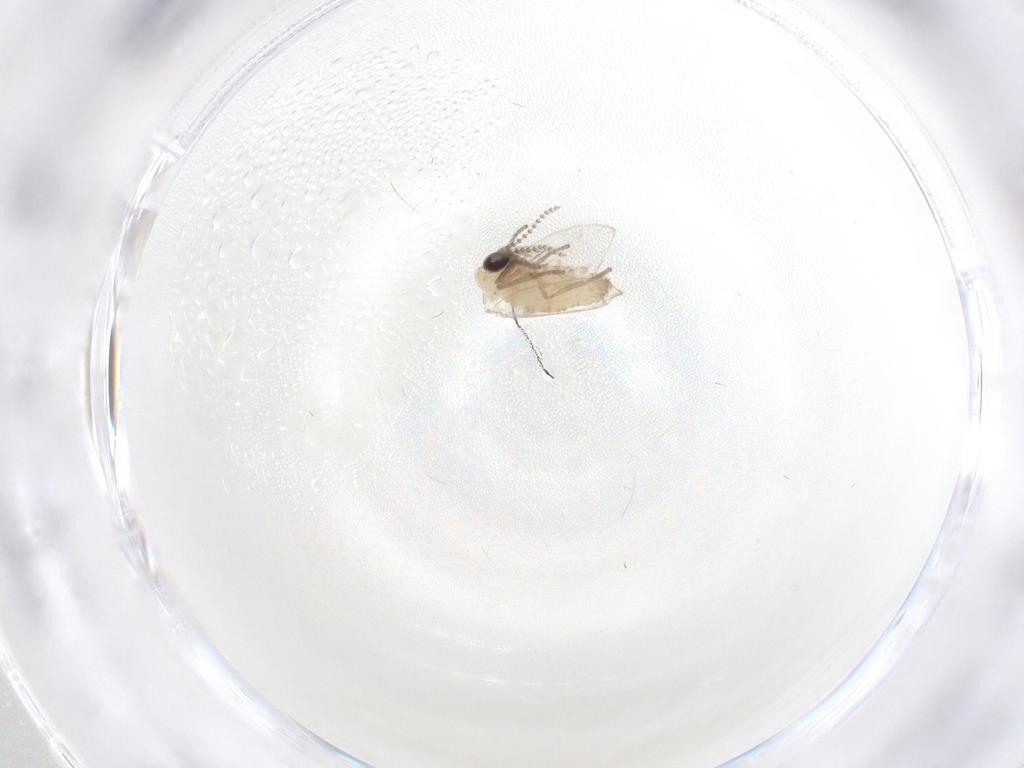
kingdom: Animalia
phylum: Arthropoda
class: Insecta
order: Diptera
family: Psychodidae
